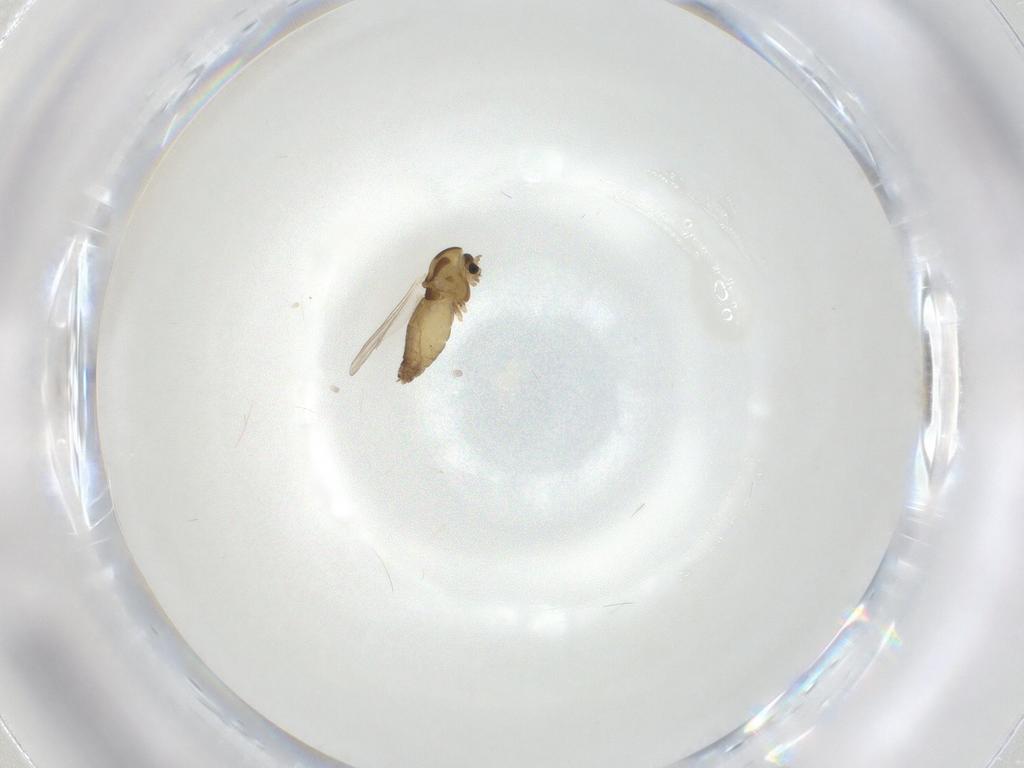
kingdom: Animalia
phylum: Arthropoda
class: Insecta
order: Diptera
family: Chironomidae
